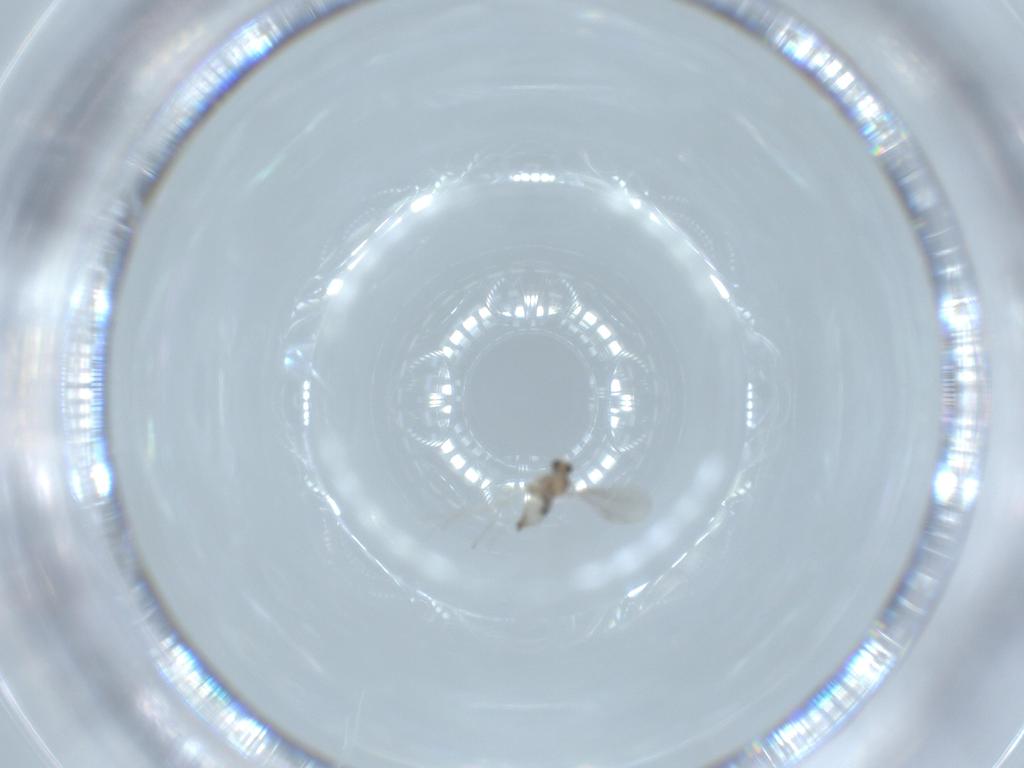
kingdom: Animalia
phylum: Arthropoda
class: Insecta
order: Diptera
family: Cecidomyiidae
